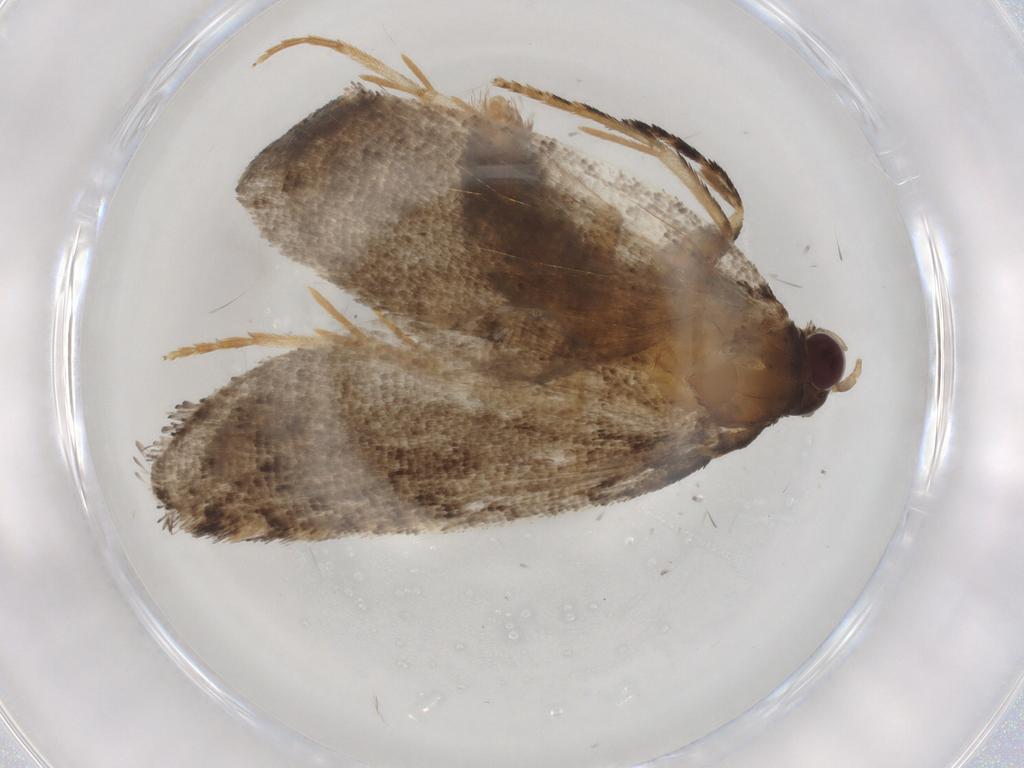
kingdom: Animalia
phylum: Arthropoda
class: Insecta
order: Lepidoptera
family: Tortricidae
